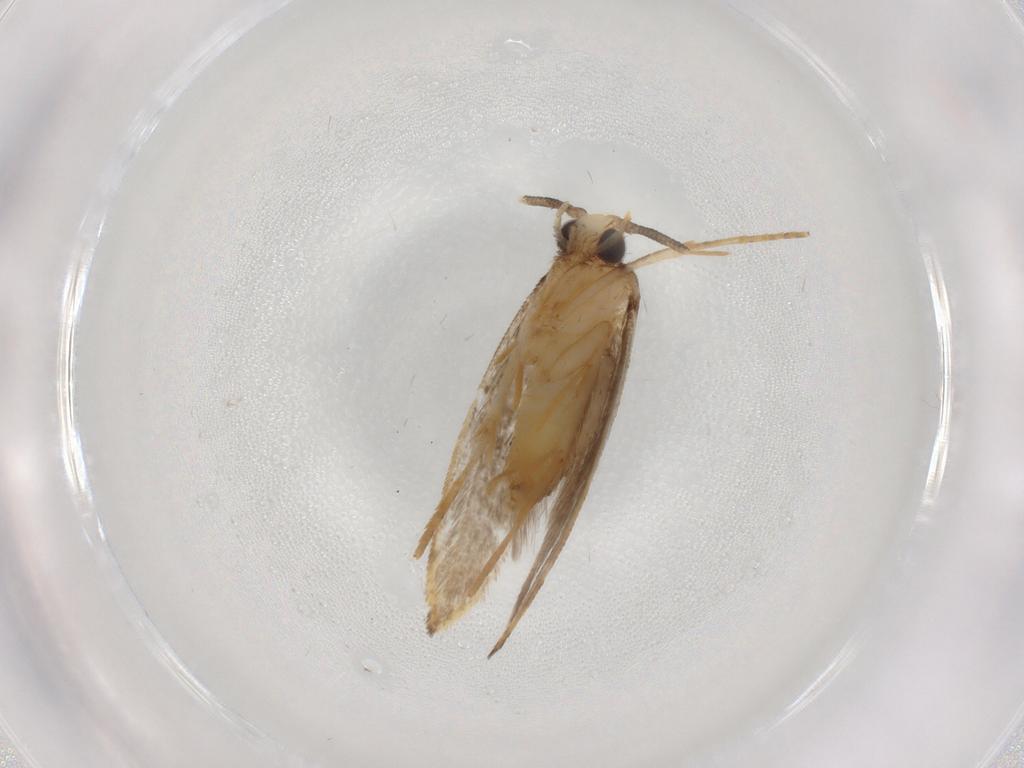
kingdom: Animalia
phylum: Arthropoda
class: Insecta
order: Lepidoptera
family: Tineidae
